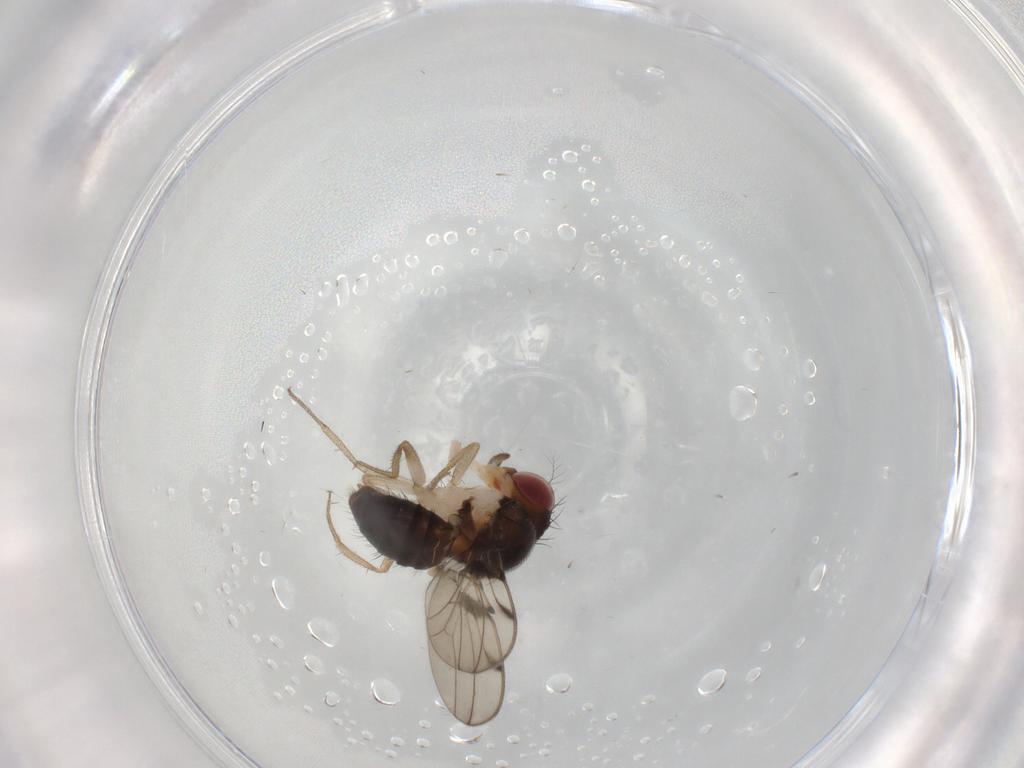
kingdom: Animalia
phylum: Arthropoda
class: Insecta
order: Diptera
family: Drosophilidae
